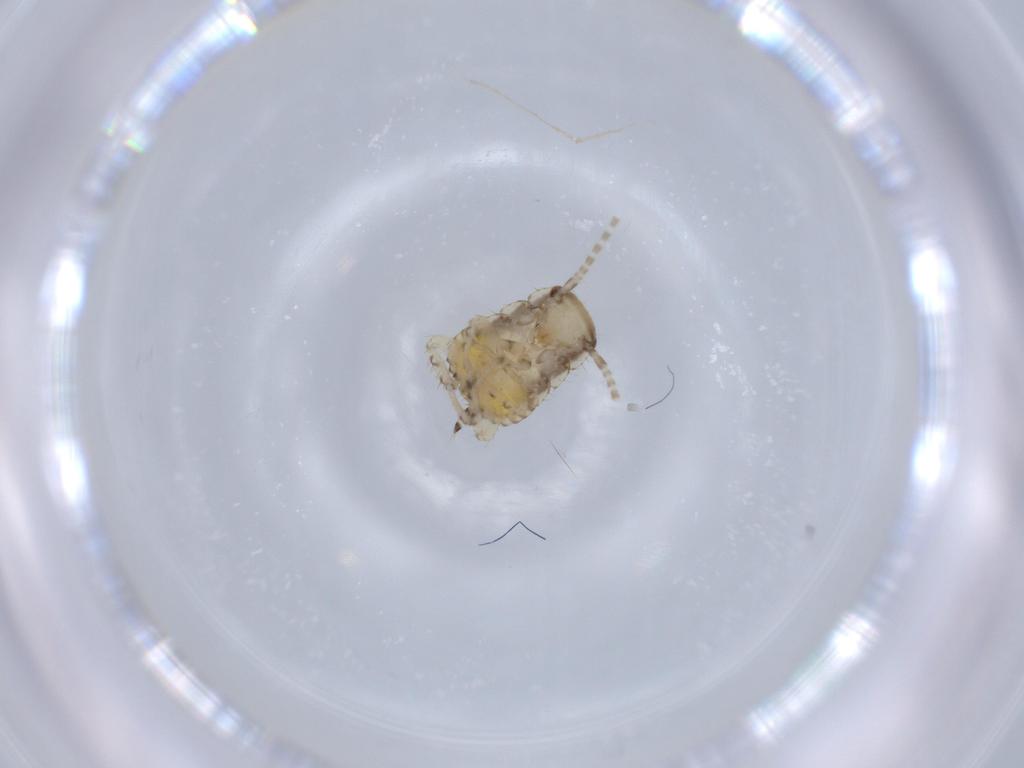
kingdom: Animalia
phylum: Arthropoda
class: Insecta
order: Blattodea
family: Ectobiidae
